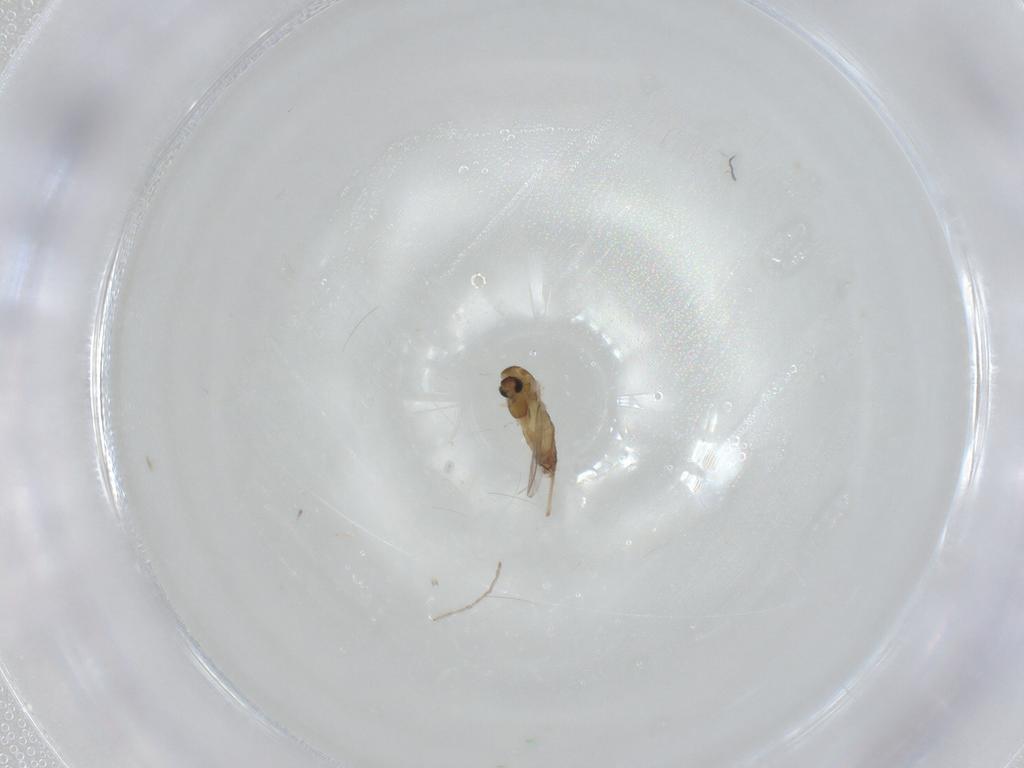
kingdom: Animalia
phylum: Arthropoda
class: Insecta
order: Diptera
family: Chironomidae
